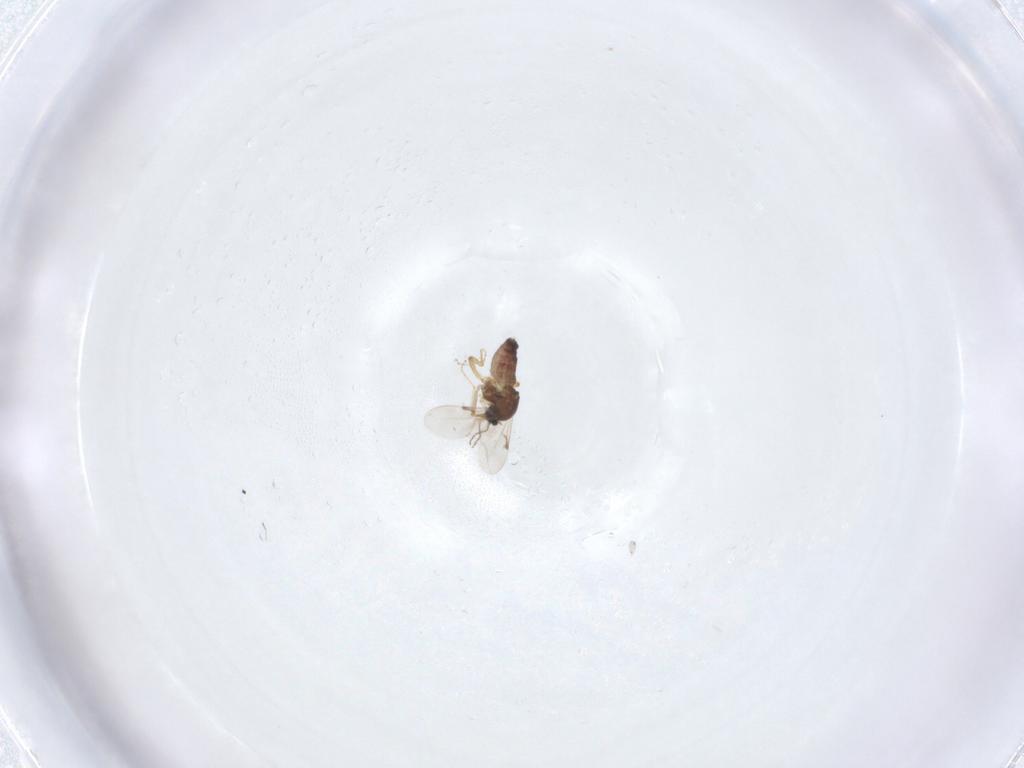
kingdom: Animalia
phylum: Arthropoda
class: Insecta
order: Diptera
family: Ceratopogonidae
